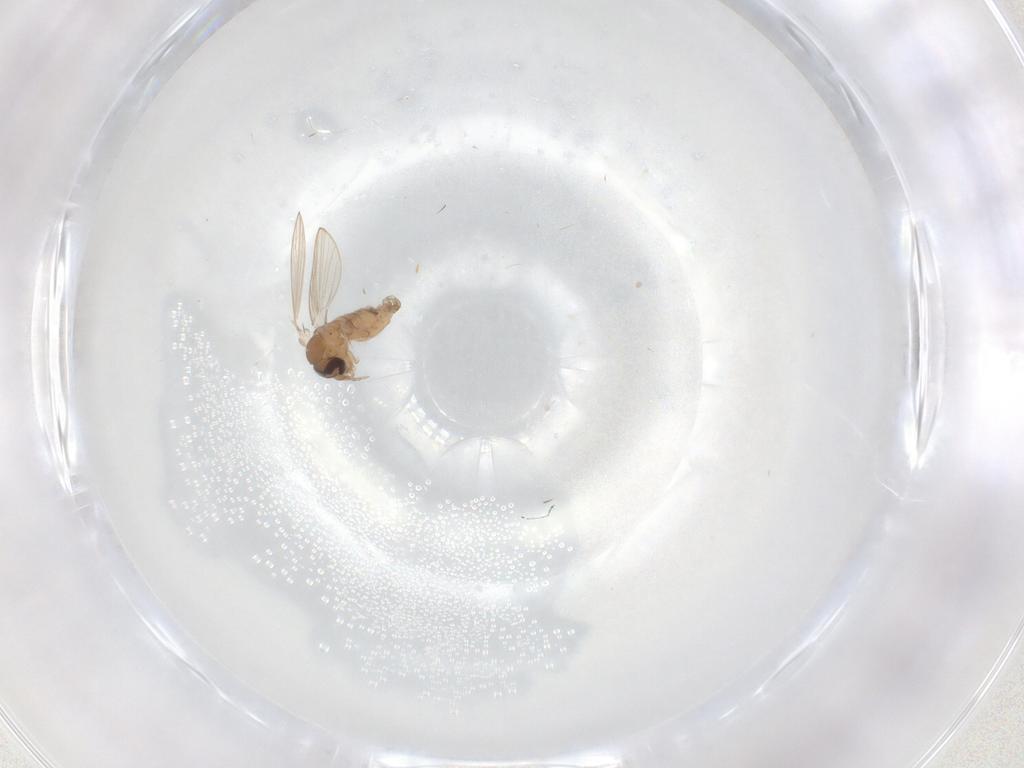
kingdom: Animalia
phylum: Arthropoda
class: Insecta
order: Diptera
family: Psychodidae
